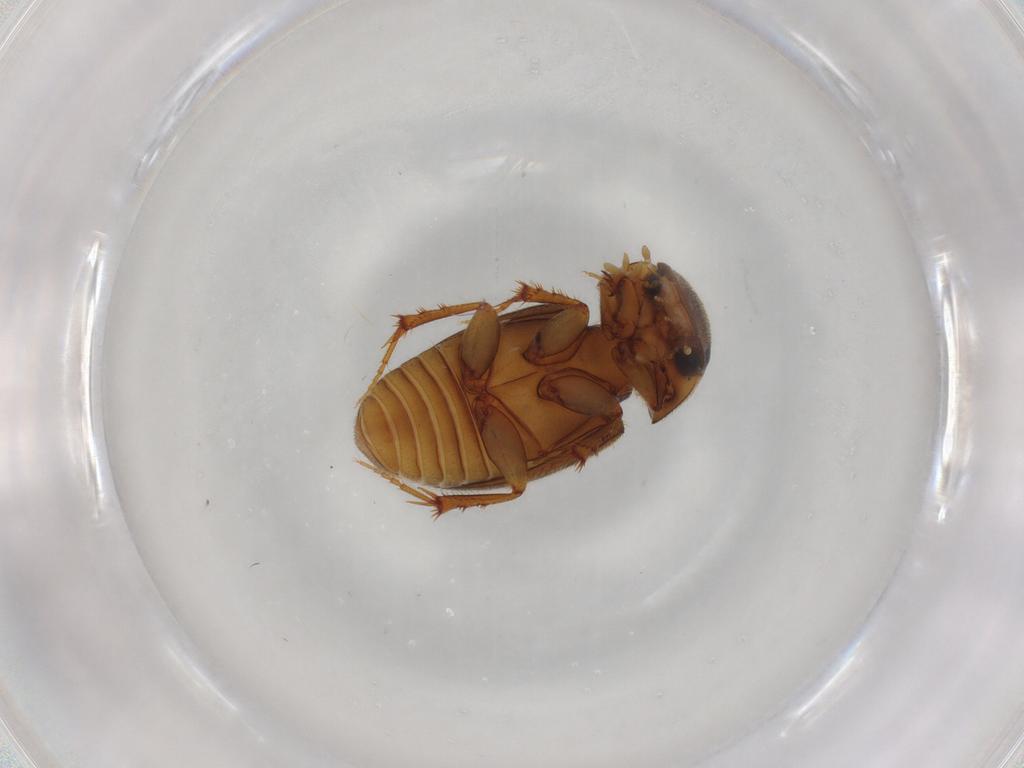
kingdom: Animalia
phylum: Arthropoda
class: Insecta
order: Coleoptera
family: Scarabaeidae
